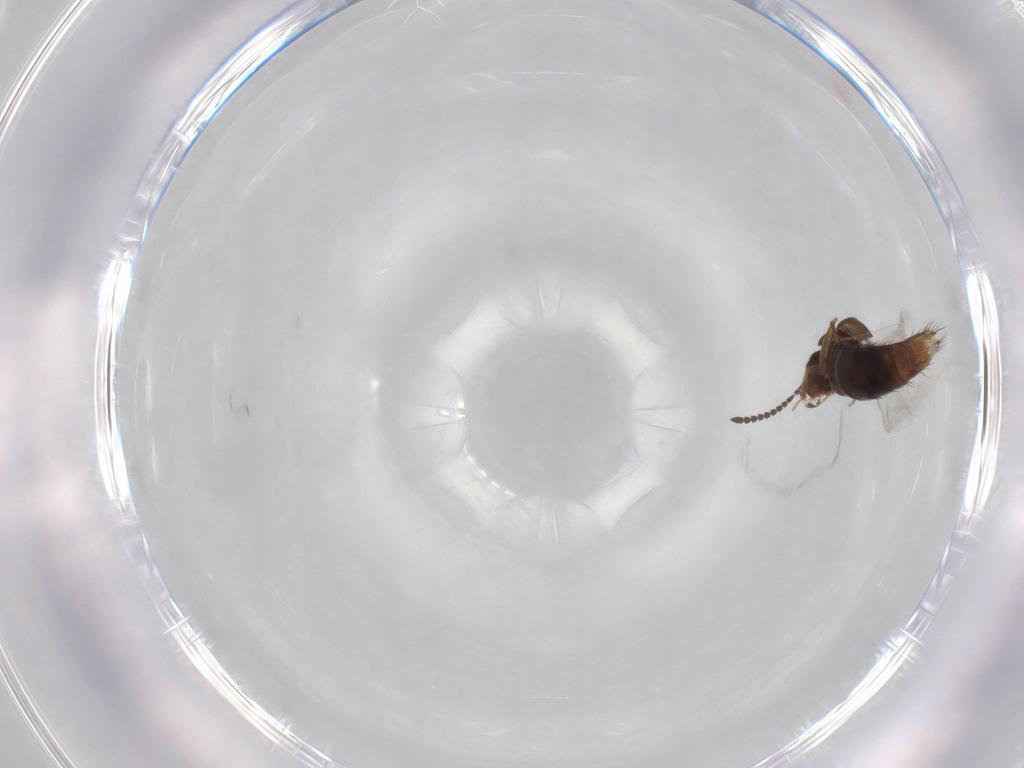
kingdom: Animalia
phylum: Arthropoda
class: Insecta
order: Coleoptera
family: Staphylinidae
